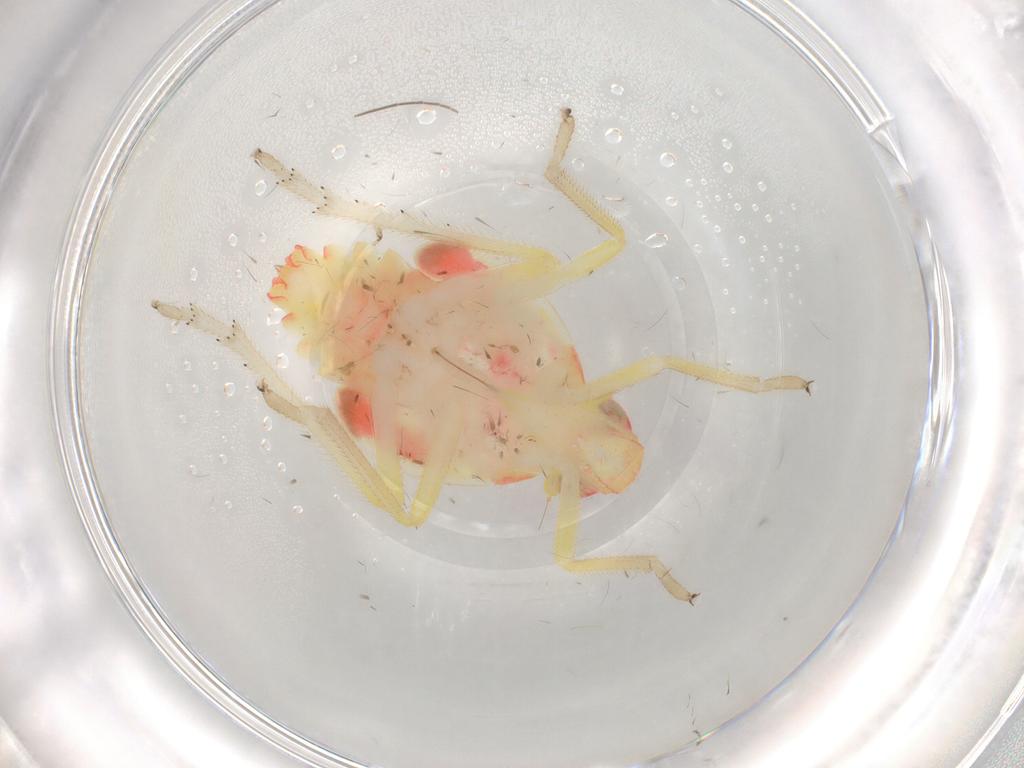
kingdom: Animalia
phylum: Arthropoda
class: Insecta
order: Hemiptera
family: Tropiduchidae
